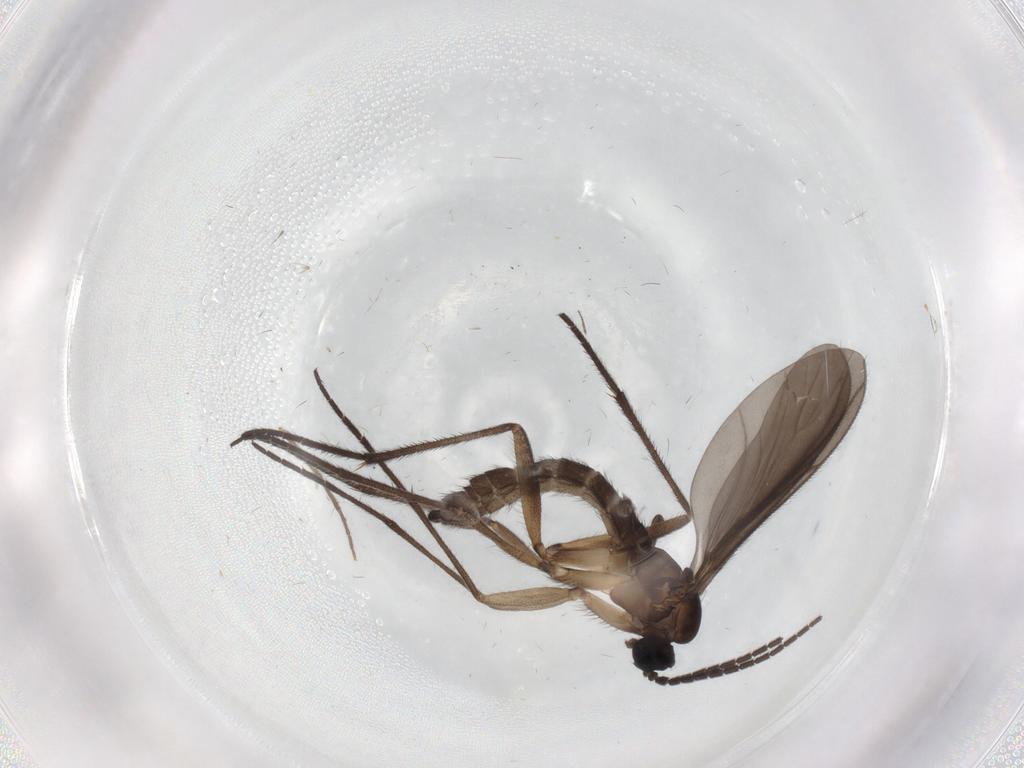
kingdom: Animalia
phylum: Arthropoda
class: Insecta
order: Diptera
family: Sciaridae
